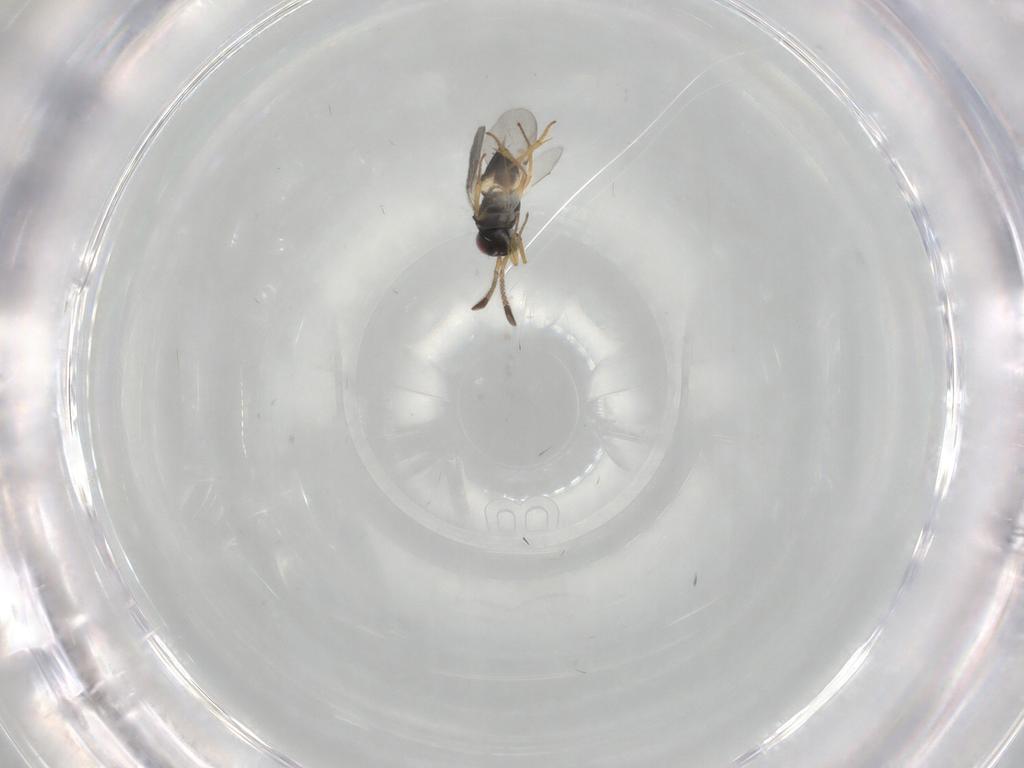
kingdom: Animalia
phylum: Arthropoda
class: Insecta
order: Hymenoptera
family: Encyrtidae
